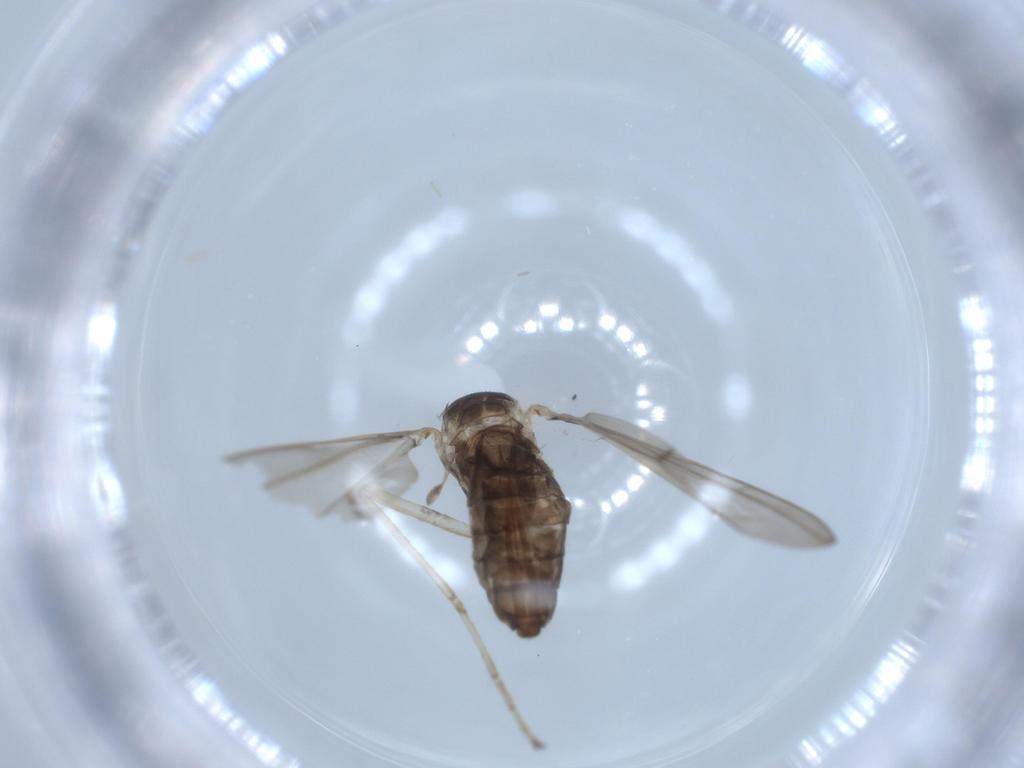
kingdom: Animalia
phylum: Arthropoda
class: Insecta
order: Diptera
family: Cecidomyiidae
